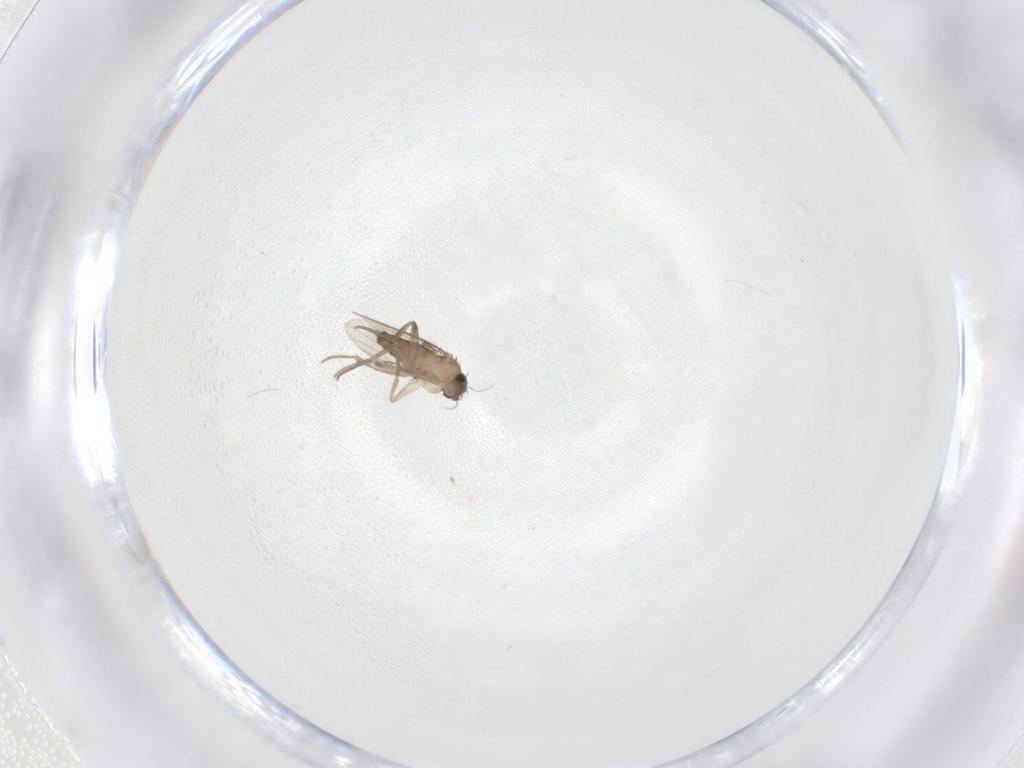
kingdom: Animalia
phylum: Arthropoda
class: Insecta
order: Diptera
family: Phoridae
